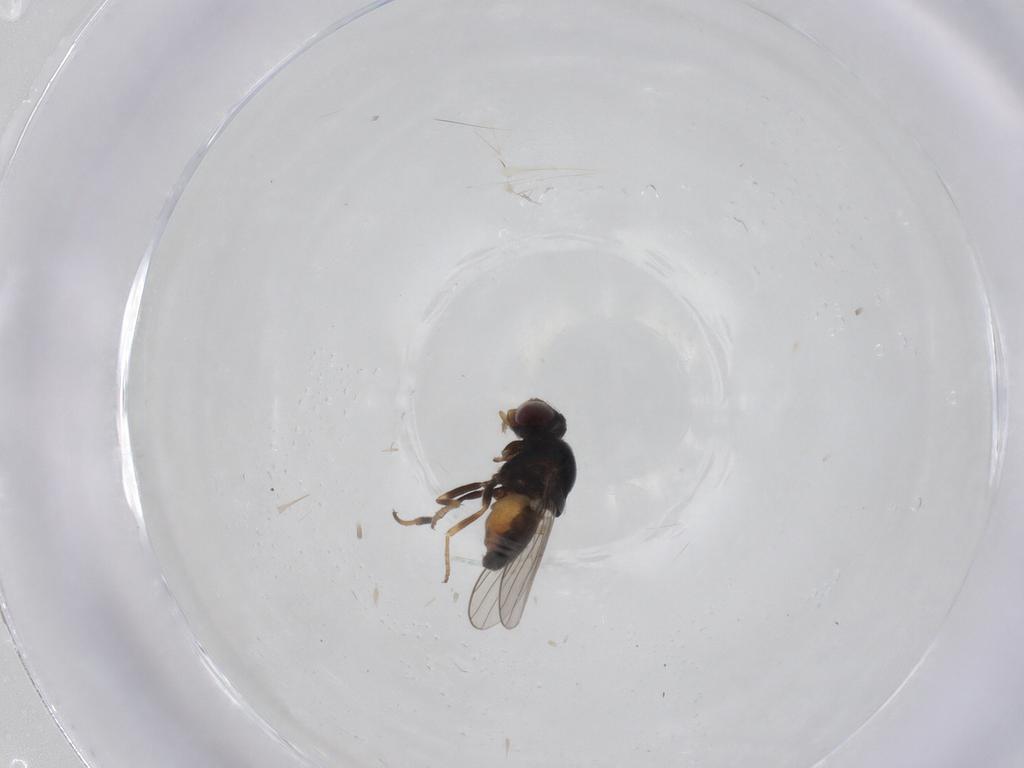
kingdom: Animalia
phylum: Arthropoda
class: Insecta
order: Diptera
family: Chloropidae
